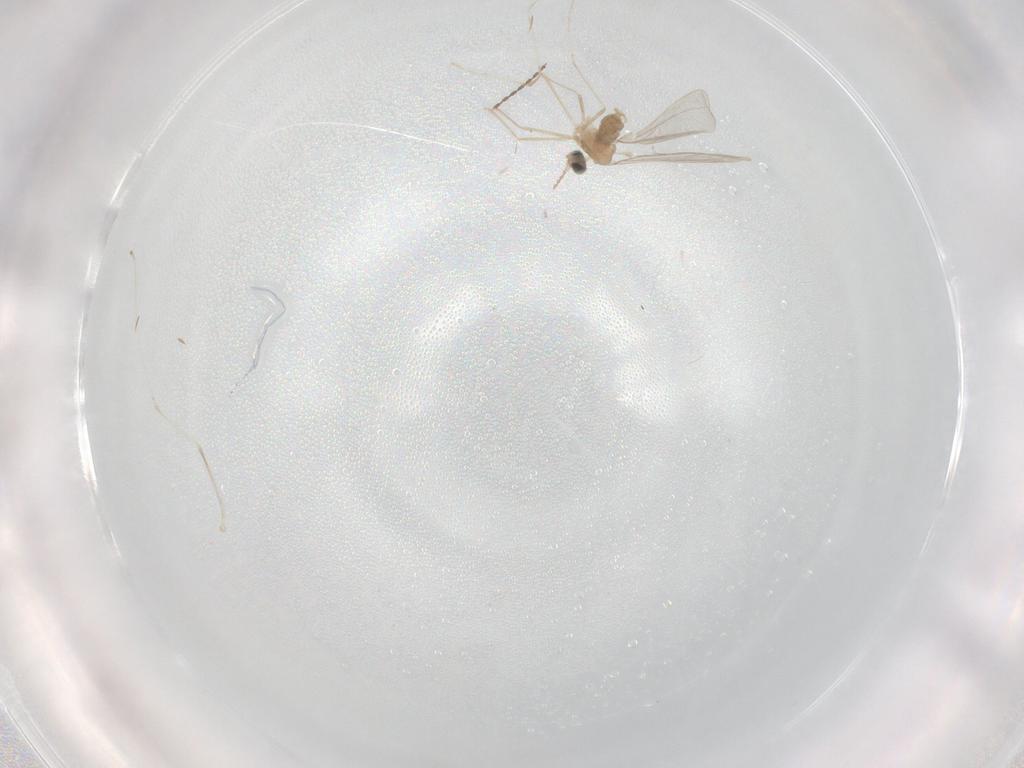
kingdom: Animalia
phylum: Arthropoda
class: Insecta
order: Diptera
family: Cecidomyiidae
